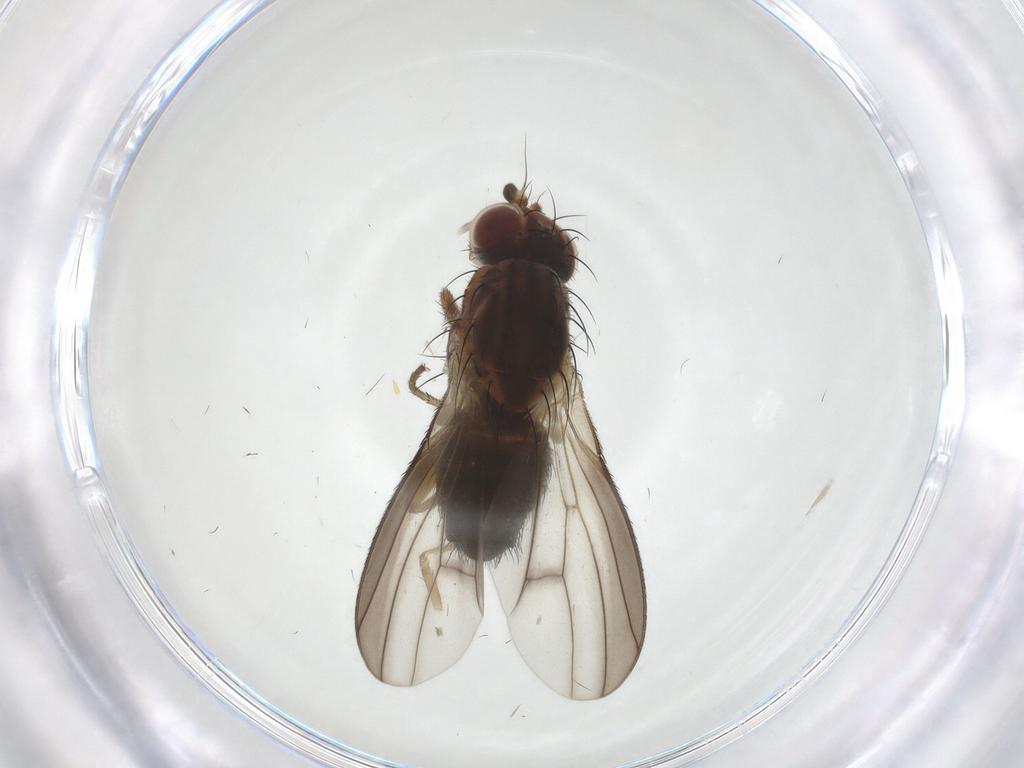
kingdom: Animalia
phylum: Arthropoda
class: Insecta
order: Diptera
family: Heleomyzidae
